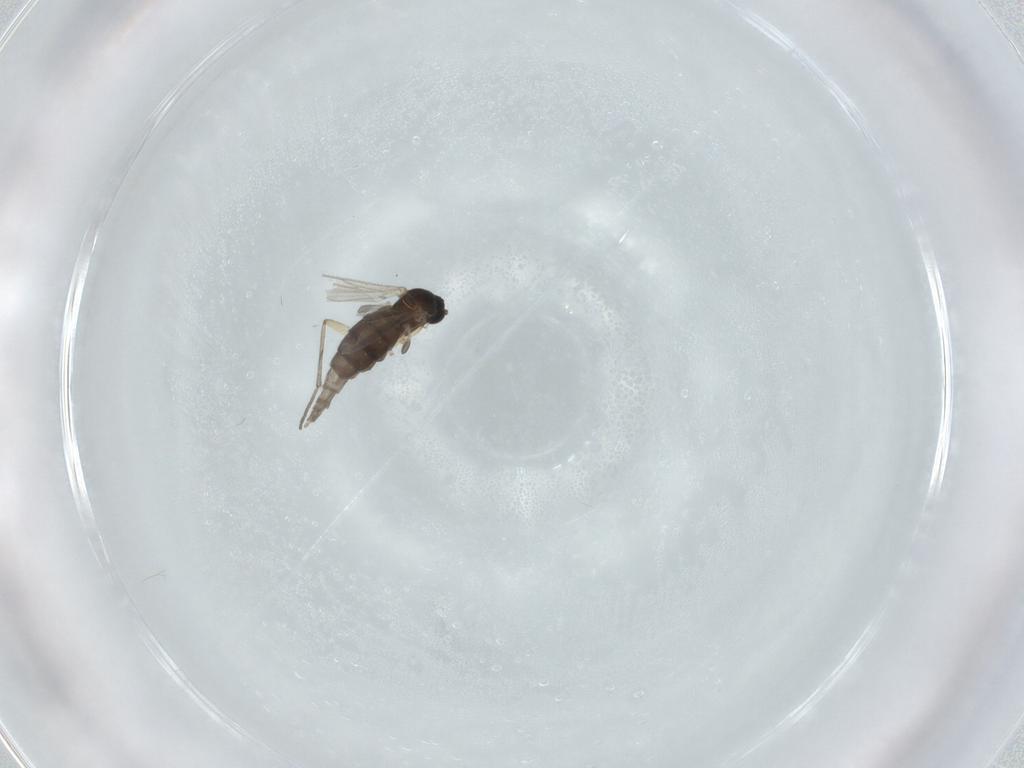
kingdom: Animalia
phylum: Arthropoda
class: Insecta
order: Diptera
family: Sciaridae
